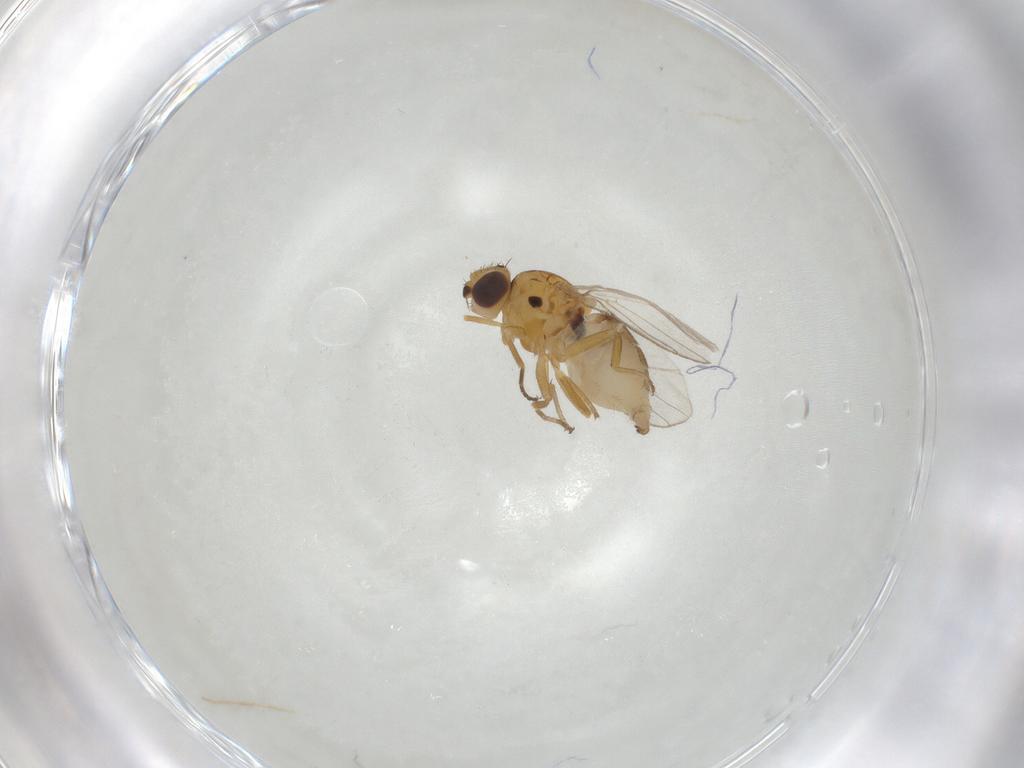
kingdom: Animalia
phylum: Arthropoda
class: Insecta
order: Diptera
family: Chloropidae
